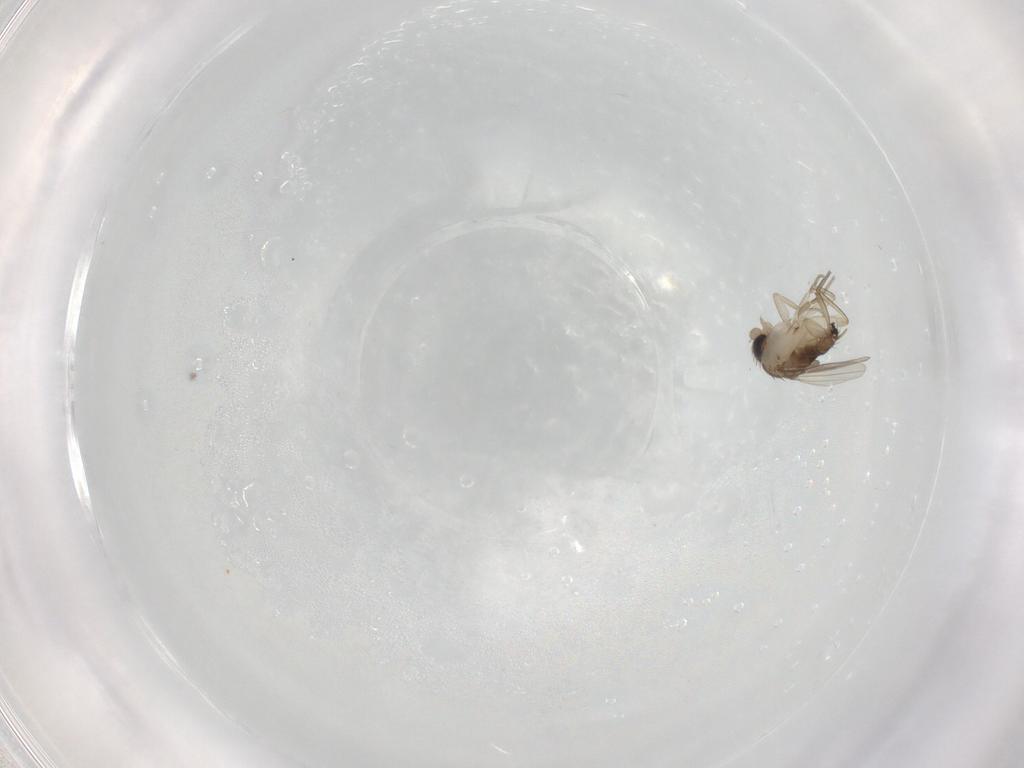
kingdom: Animalia
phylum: Arthropoda
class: Insecta
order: Diptera
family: Phoridae
